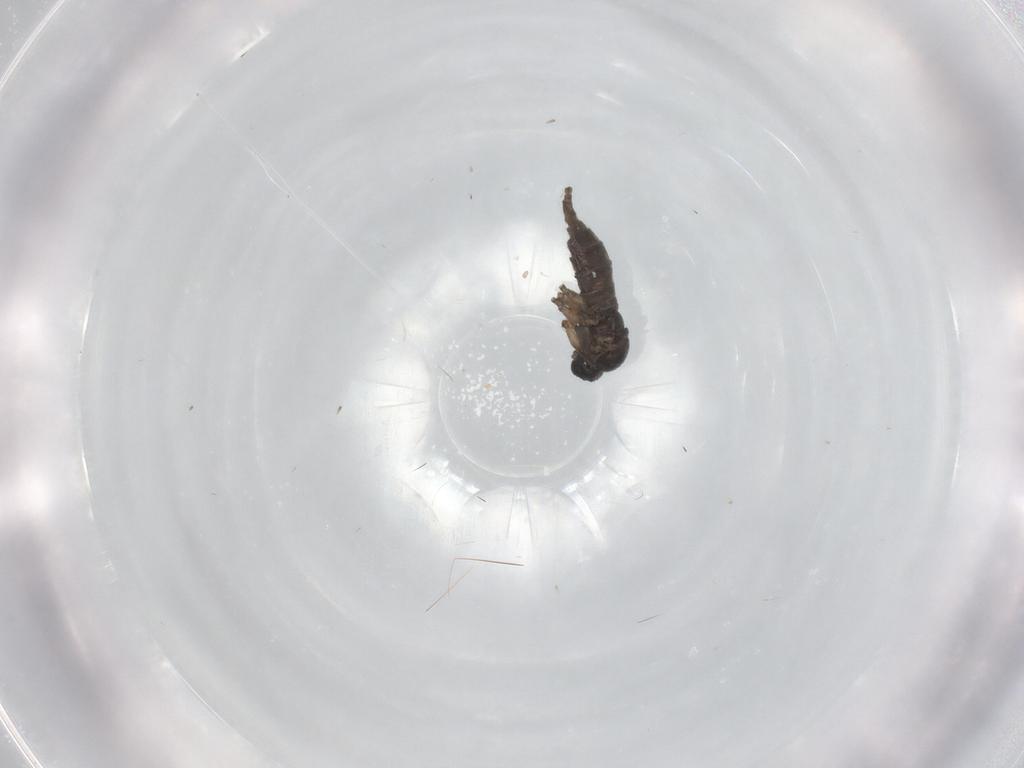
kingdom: Animalia
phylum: Arthropoda
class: Insecta
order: Diptera
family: Sciaridae
